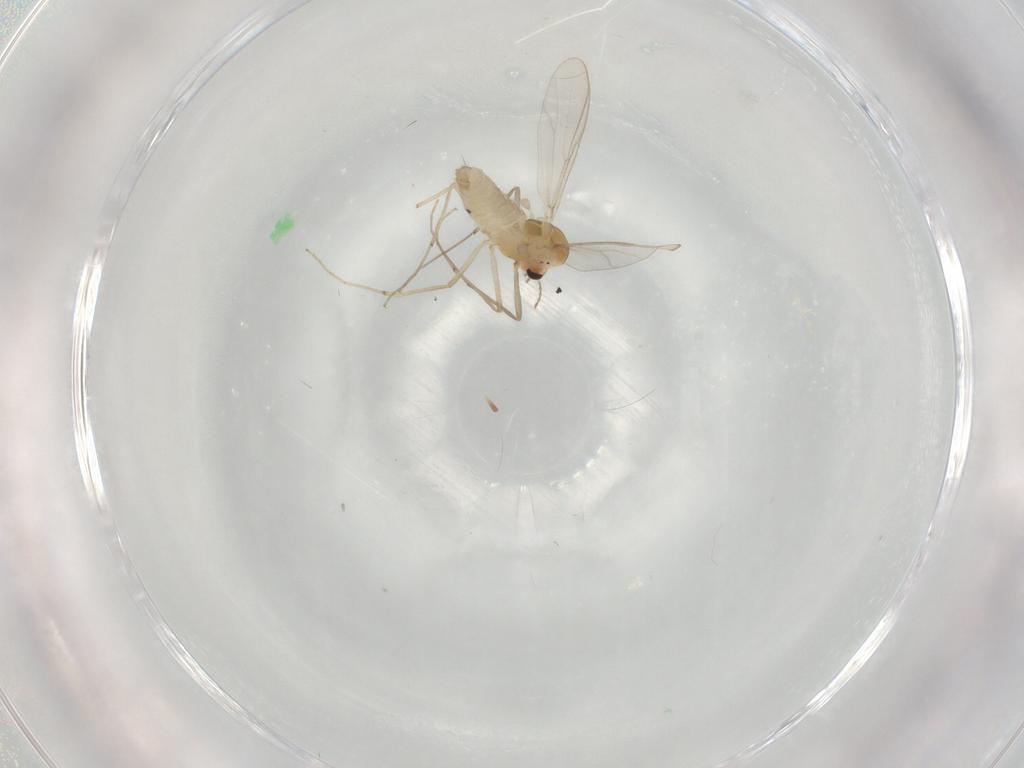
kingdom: Animalia
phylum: Arthropoda
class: Insecta
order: Diptera
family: Chironomidae
